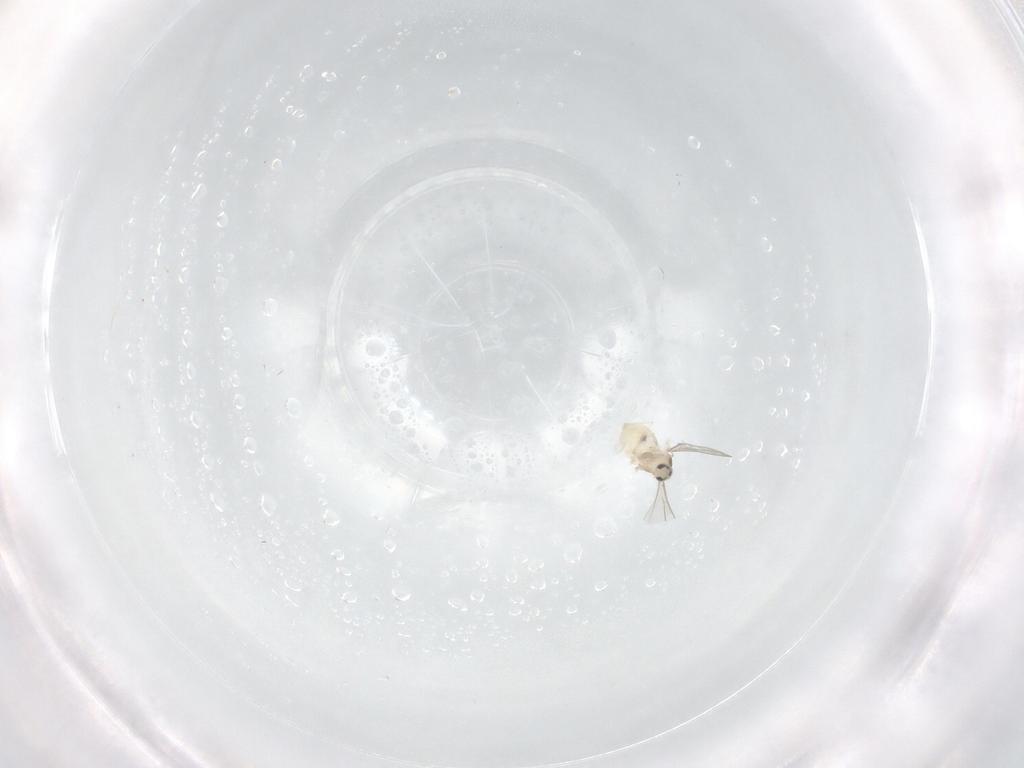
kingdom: Animalia
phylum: Arthropoda
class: Insecta
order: Diptera
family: Cecidomyiidae
